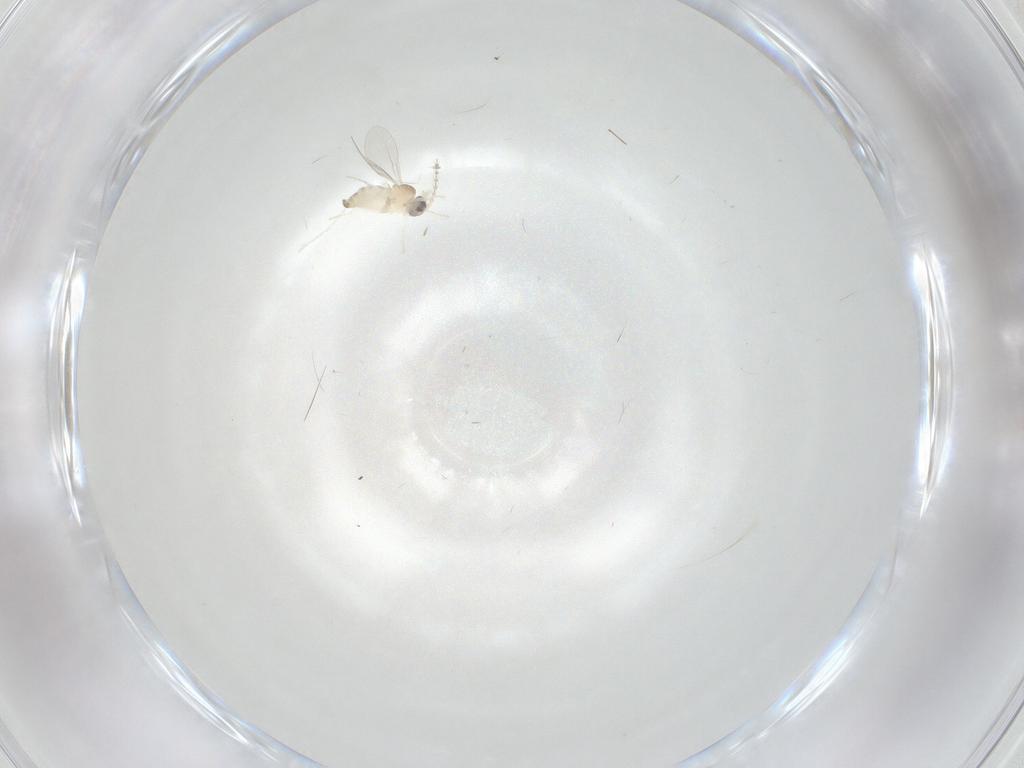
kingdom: Animalia
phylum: Arthropoda
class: Insecta
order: Diptera
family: Cecidomyiidae
